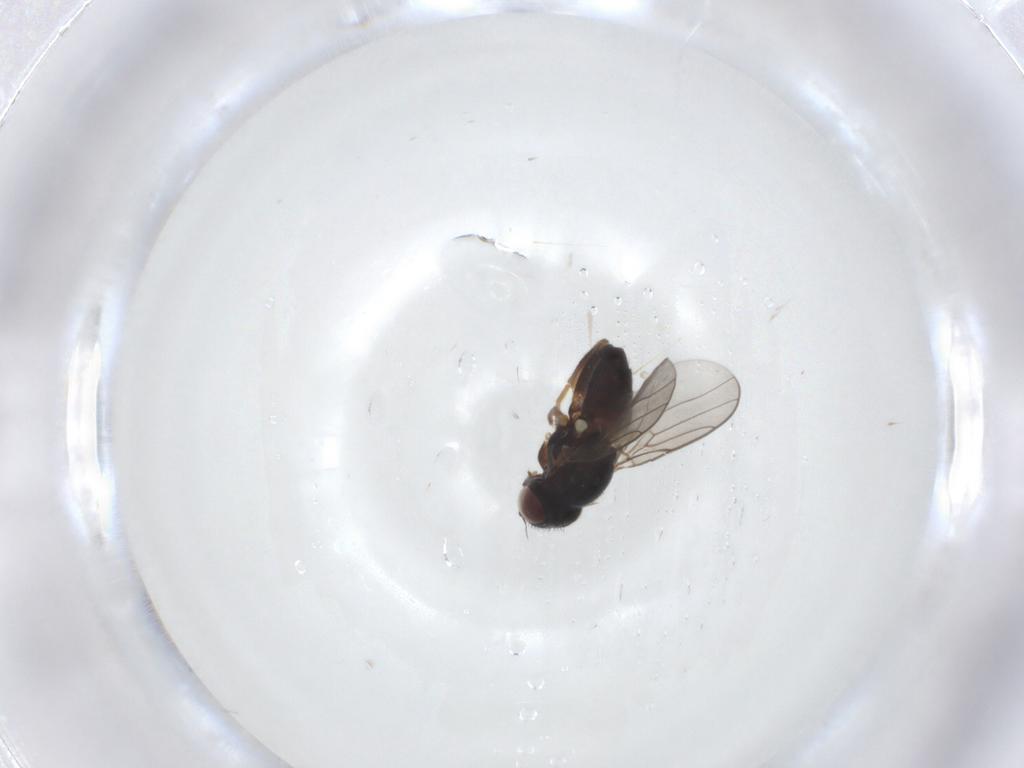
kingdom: Animalia
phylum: Arthropoda
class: Insecta
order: Diptera
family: Chloropidae
